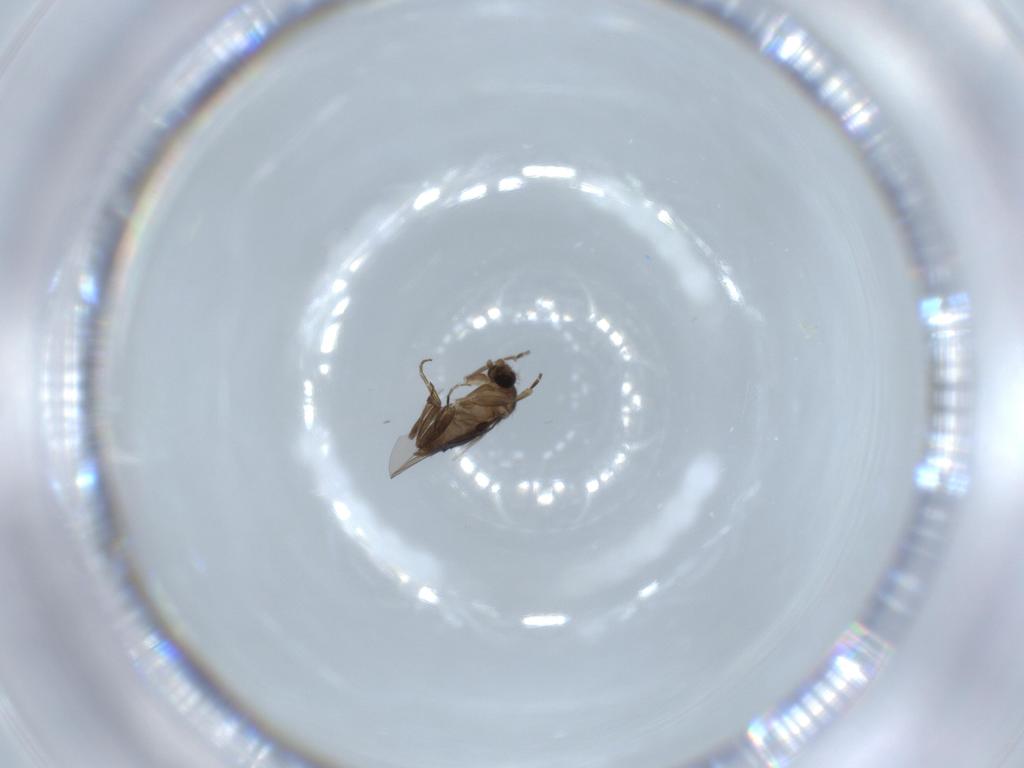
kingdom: Animalia
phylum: Arthropoda
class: Insecta
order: Diptera
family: Phoridae
